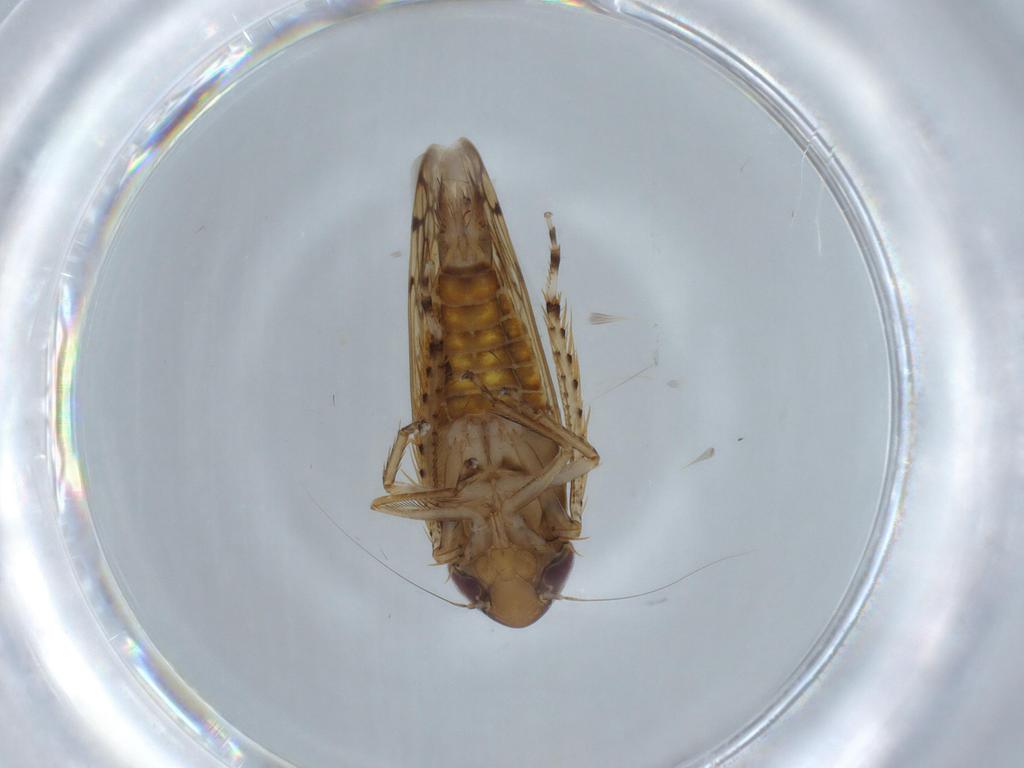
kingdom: Animalia
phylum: Arthropoda
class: Insecta
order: Hemiptera
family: Cicadellidae
